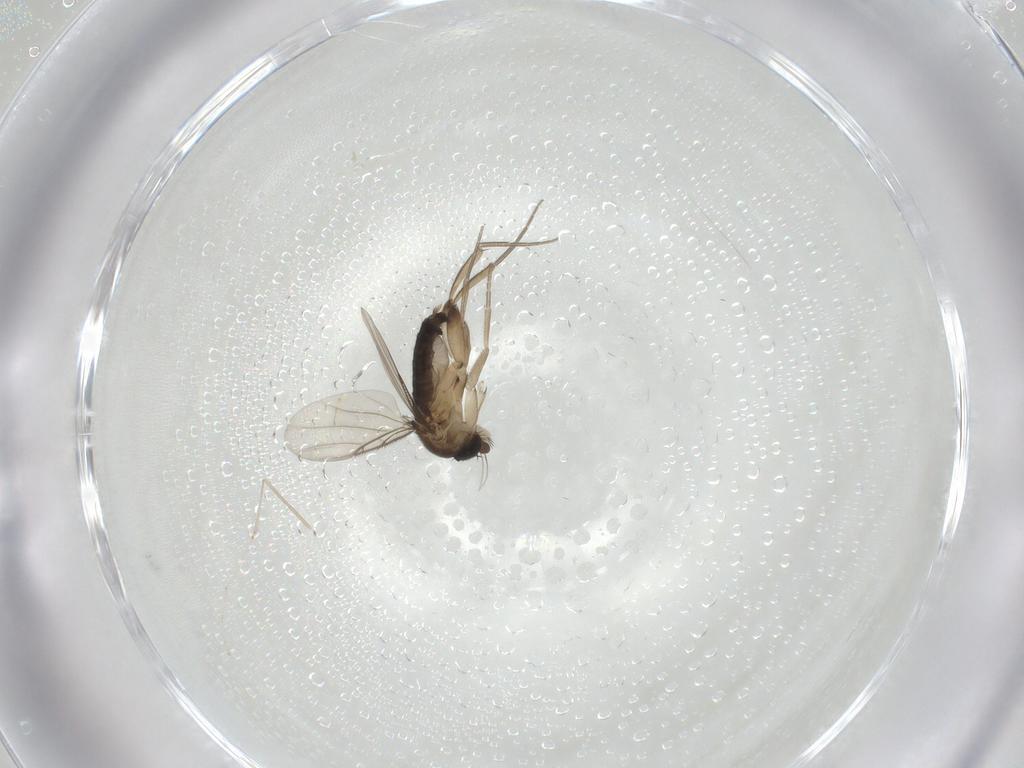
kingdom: Animalia
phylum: Arthropoda
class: Insecta
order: Diptera
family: Phoridae
